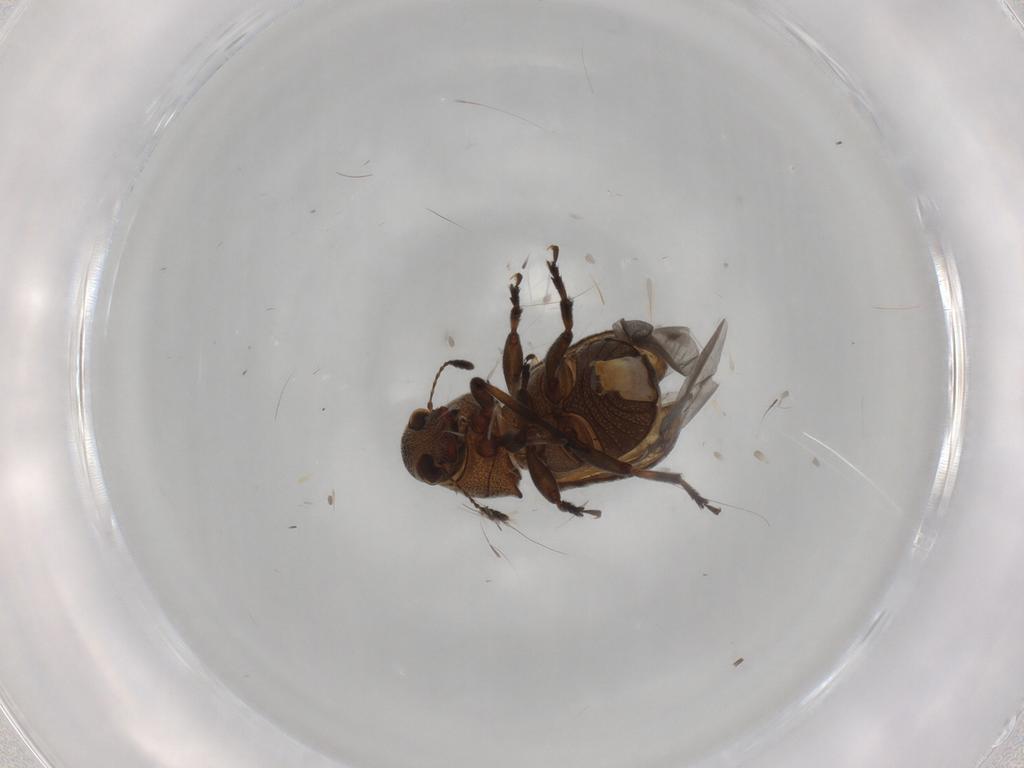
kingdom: Animalia
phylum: Arthropoda
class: Insecta
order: Coleoptera
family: Anthribidae
